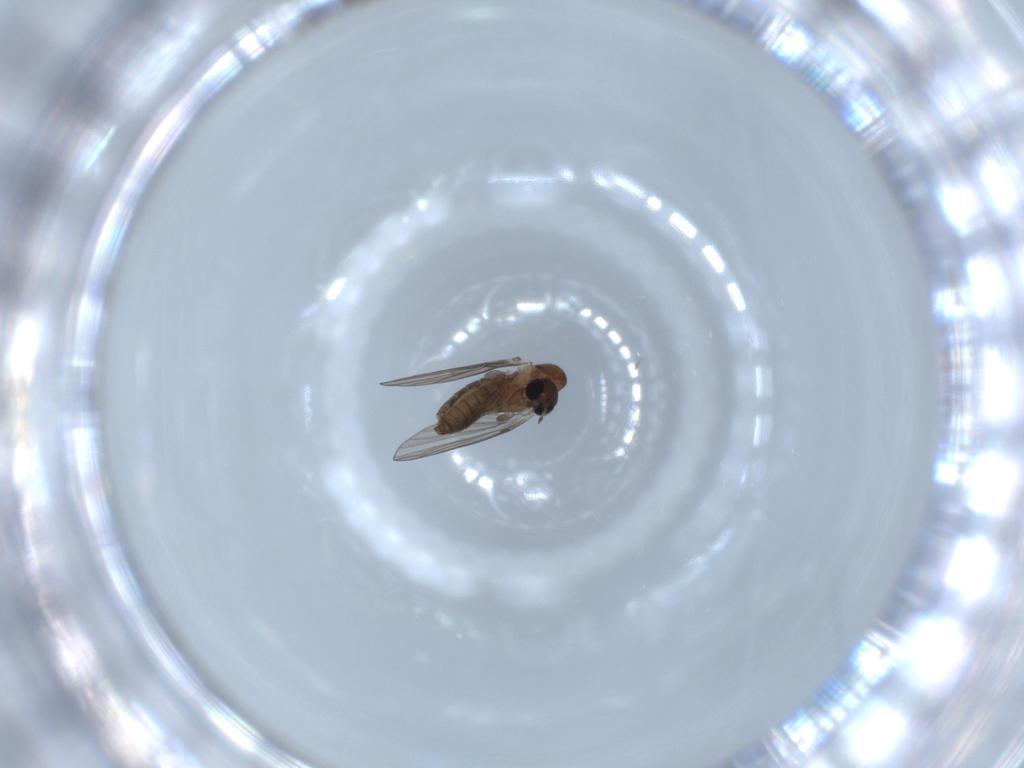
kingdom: Animalia
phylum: Arthropoda
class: Insecta
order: Diptera
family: Psychodidae
